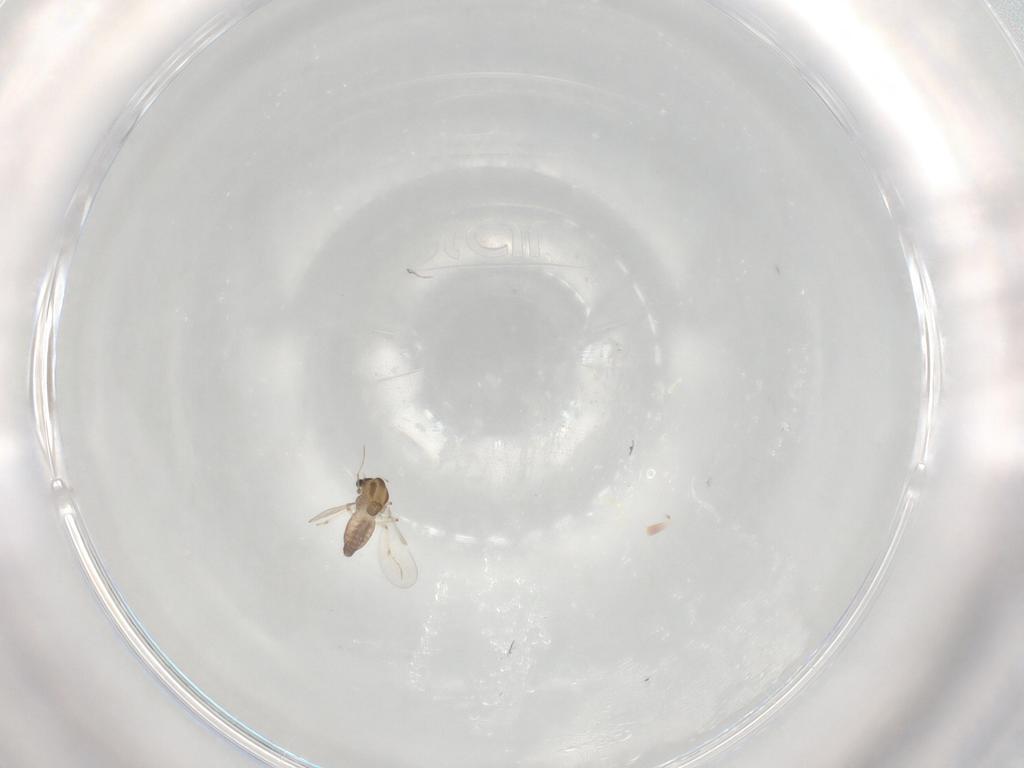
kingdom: Animalia
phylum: Arthropoda
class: Insecta
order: Diptera
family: Chironomidae
